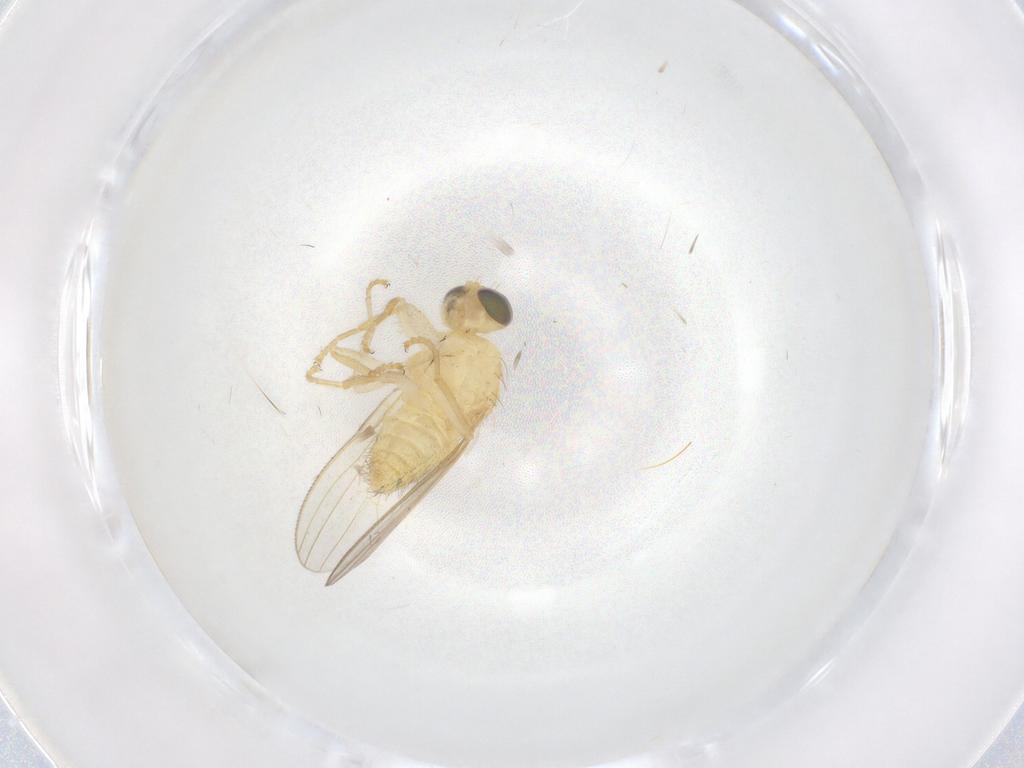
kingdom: Animalia
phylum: Arthropoda
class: Insecta
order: Diptera
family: Chyromyidae
